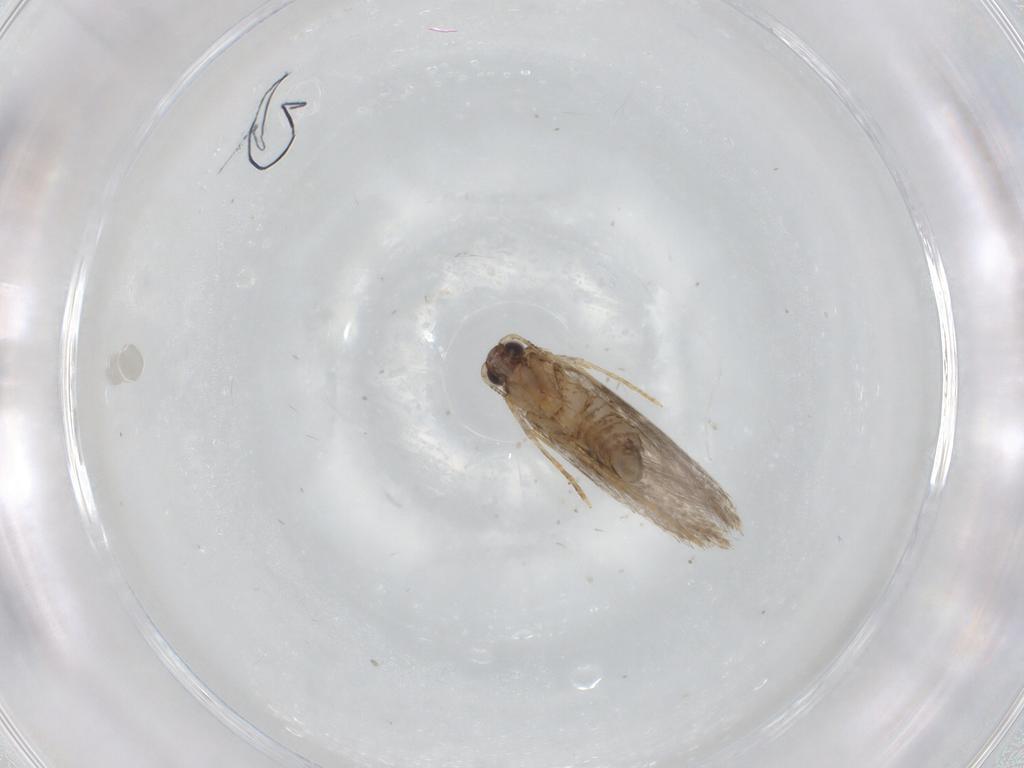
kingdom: Animalia
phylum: Arthropoda
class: Insecta
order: Lepidoptera
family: Tineidae
